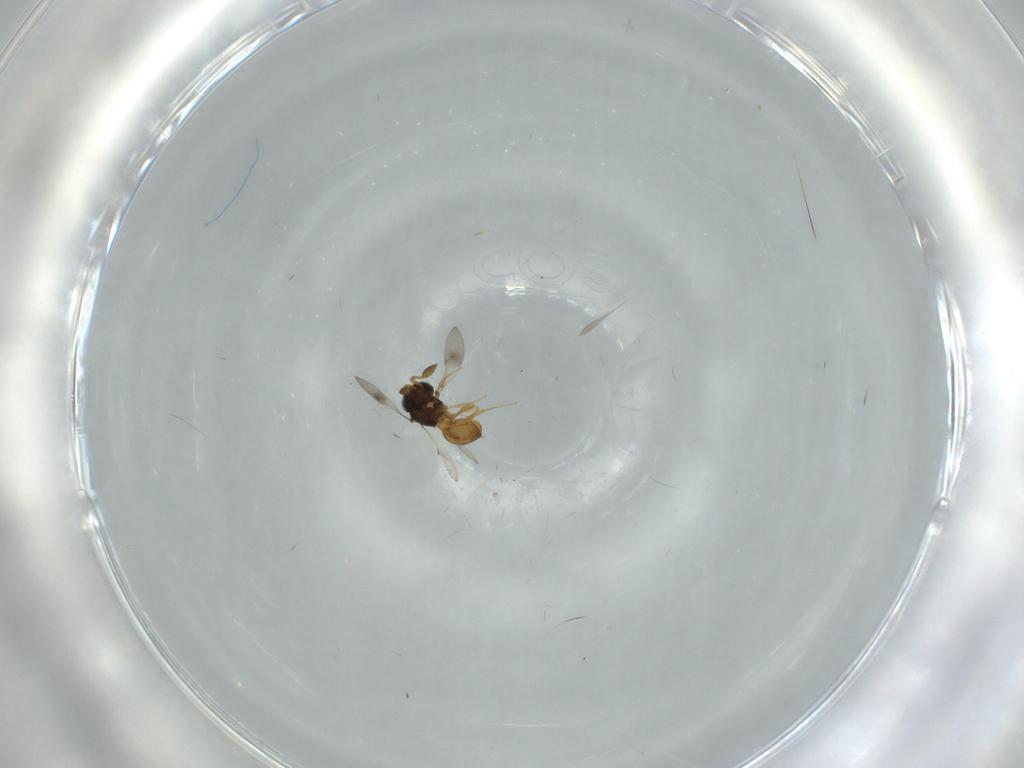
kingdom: Animalia
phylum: Arthropoda
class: Insecta
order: Hymenoptera
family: Scelionidae
